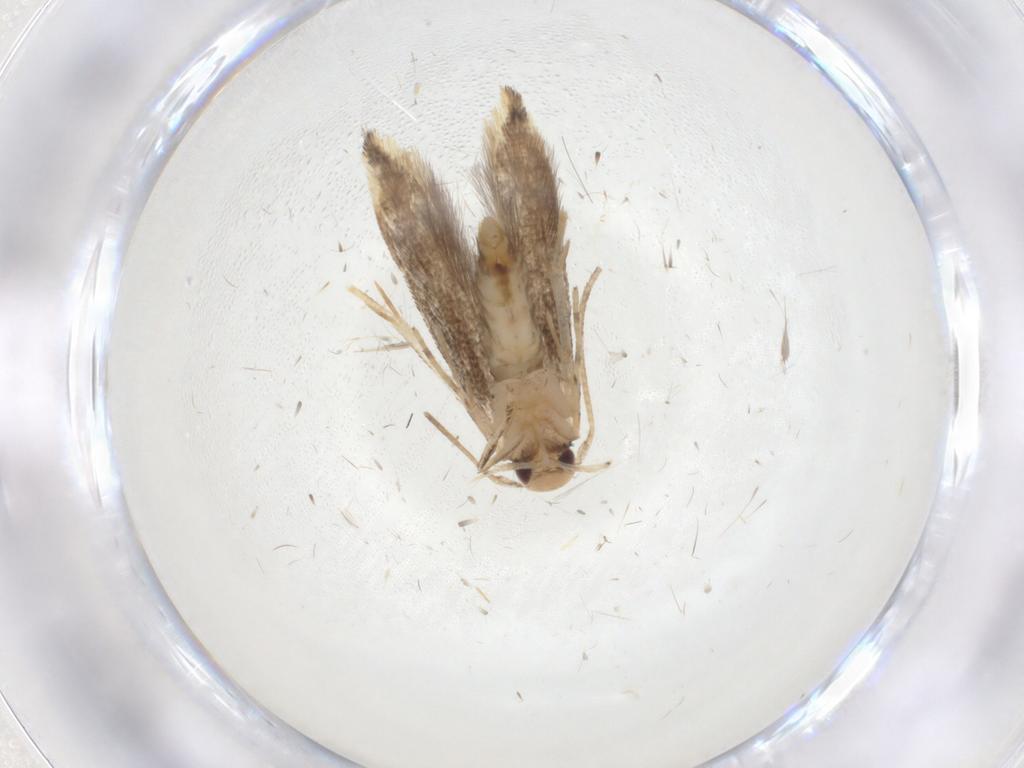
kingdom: Animalia
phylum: Arthropoda
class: Insecta
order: Lepidoptera
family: Momphidae
